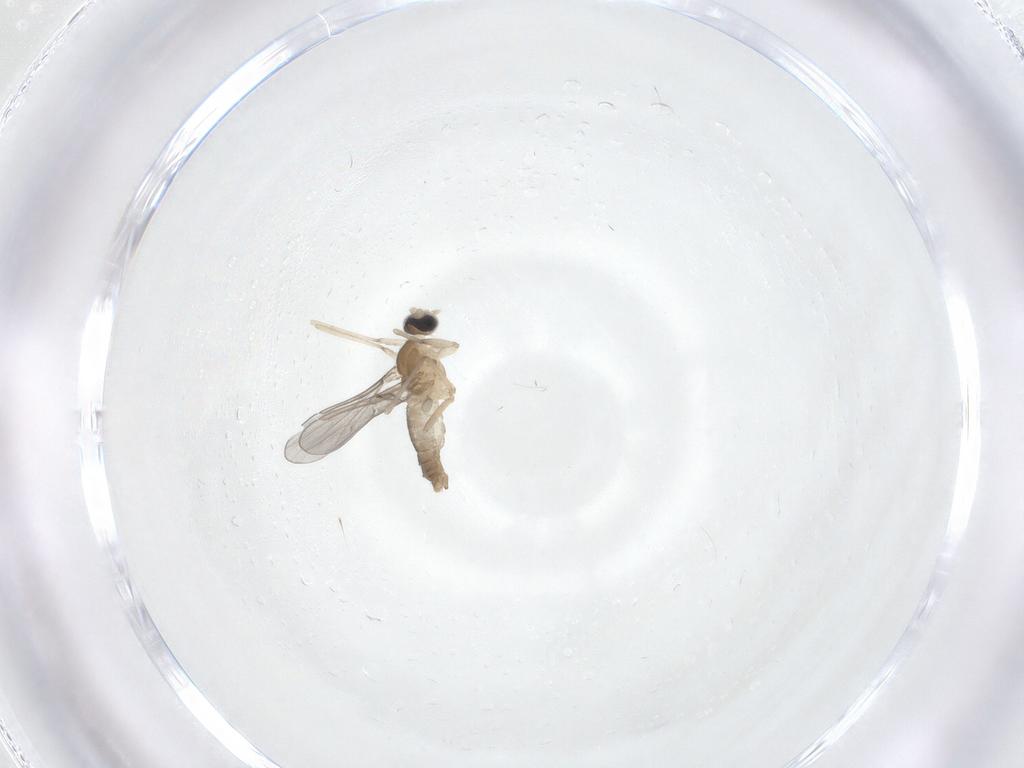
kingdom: Animalia
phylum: Arthropoda
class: Insecta
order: Diptera
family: Cecidomyiidae
